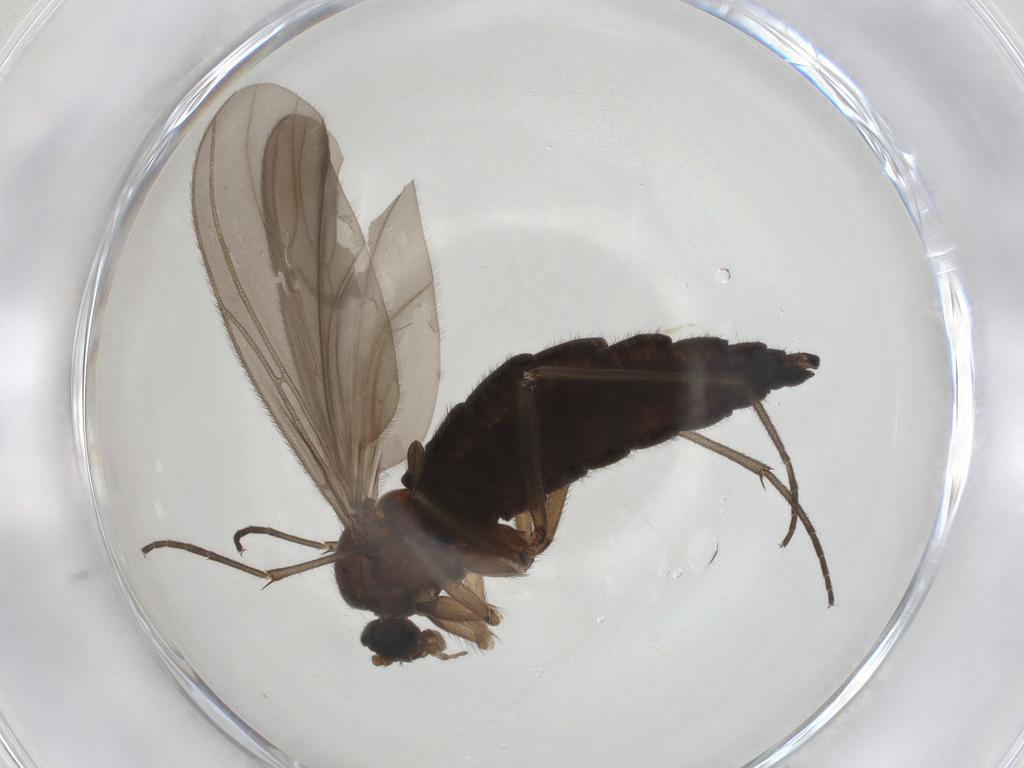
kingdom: Animalia
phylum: Arthropoda
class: Insecta
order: Diptera
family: Sciaridae
